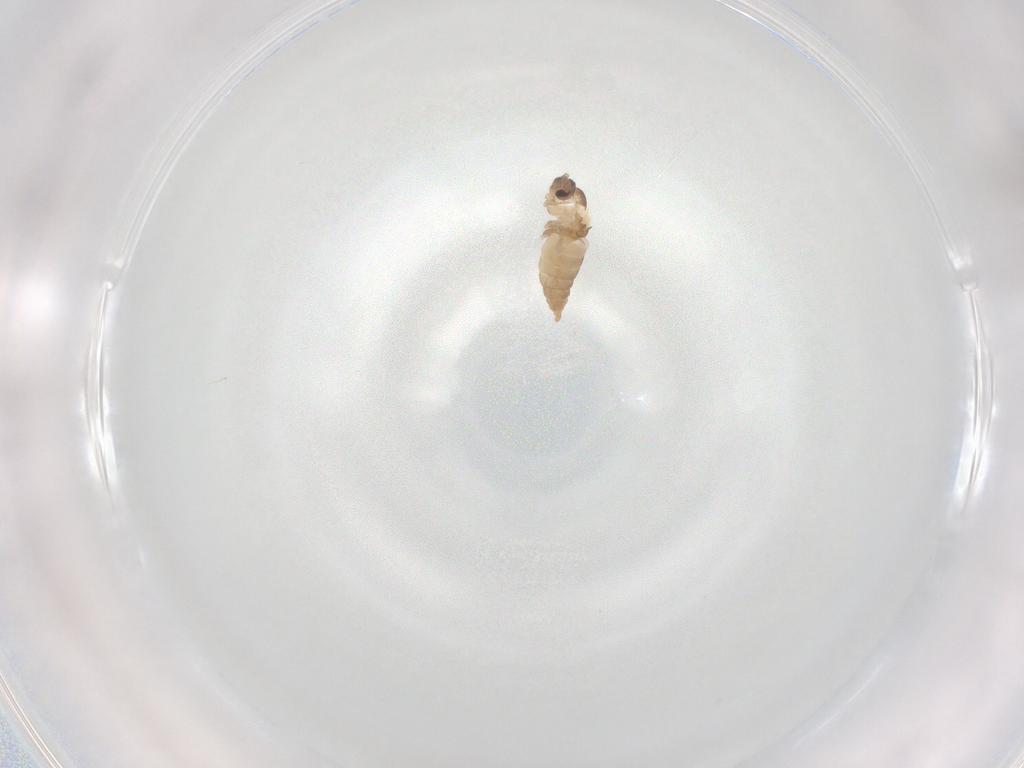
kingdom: Animalia
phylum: Arthropoda
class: Insecta
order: Diptera
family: Cecidomyiidae
